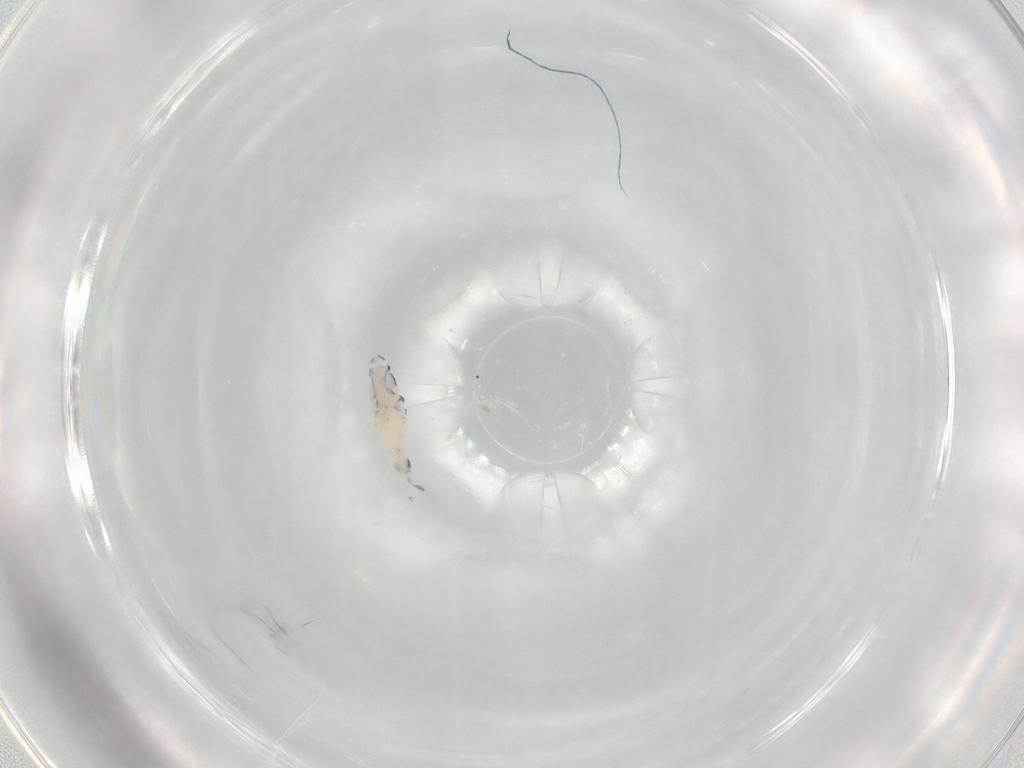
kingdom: Animalia
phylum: Arthropoda
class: Collembola
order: Entomobryomorpha
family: Entomobryidae
